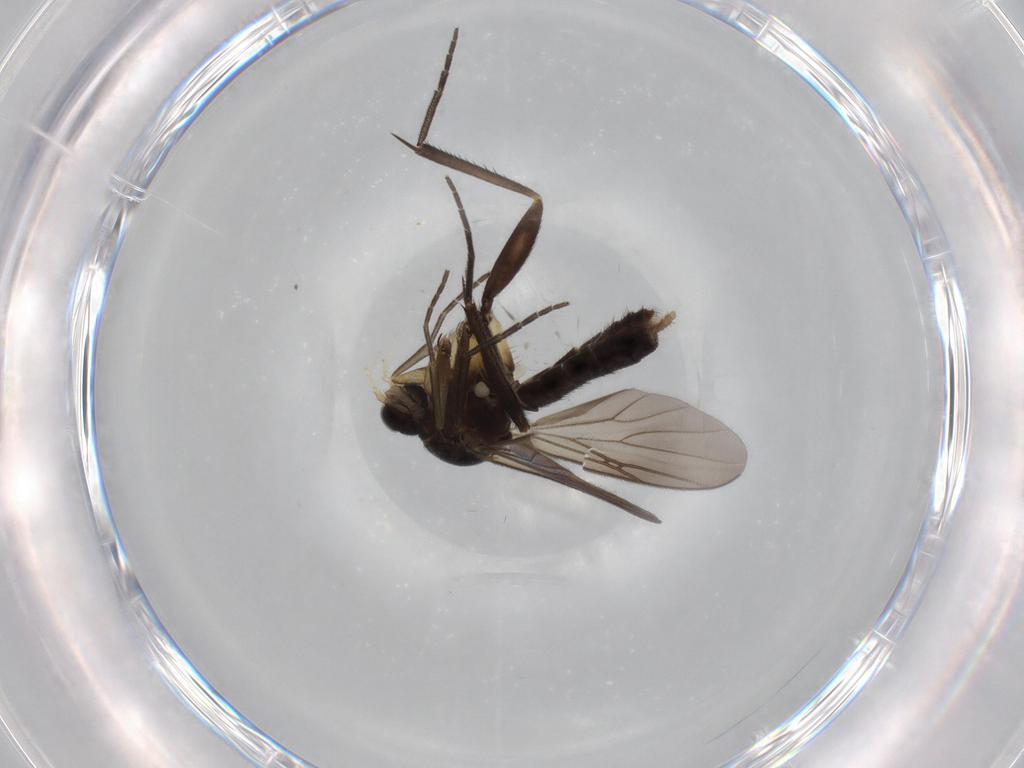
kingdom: Animalia
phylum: Arthropoda
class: Insecta
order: Diptera
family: Mycetophilidae
